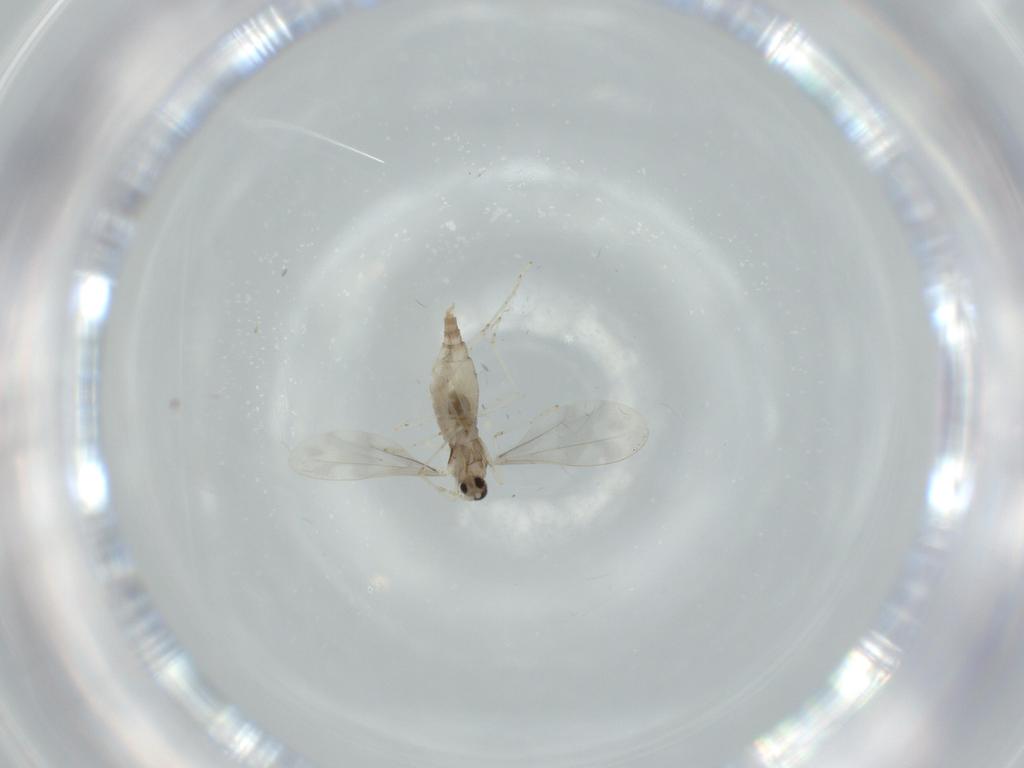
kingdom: Animalia
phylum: Arthropoda
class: Insecta
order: Diptera
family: Cecidomyiidae
